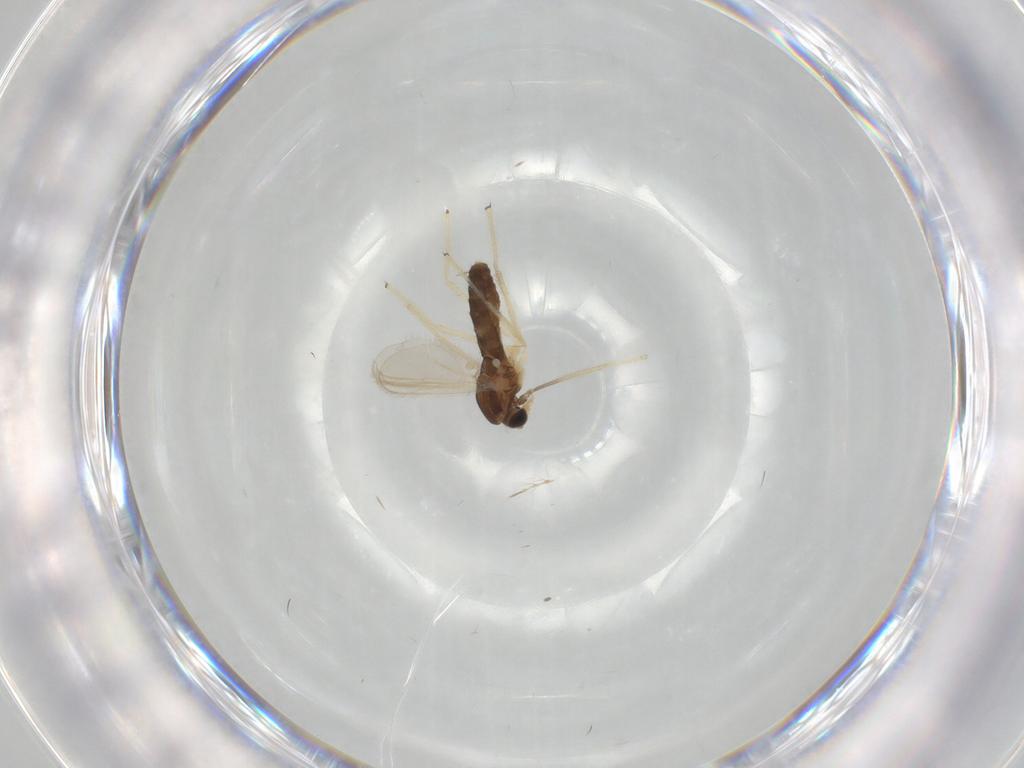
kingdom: Animalia
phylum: Arthropoda
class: Insecta
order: Diptera
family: Chironomidae
